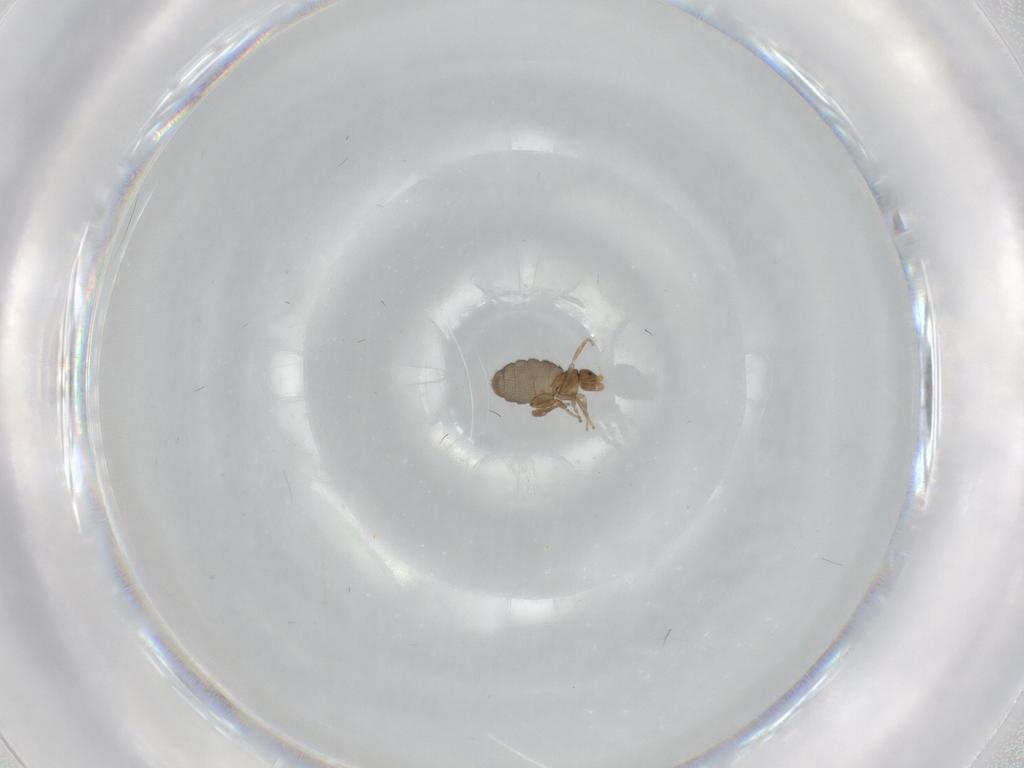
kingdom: Animalia
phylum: Arthropoda
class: Insecta
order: Diptera
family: Phoridae
